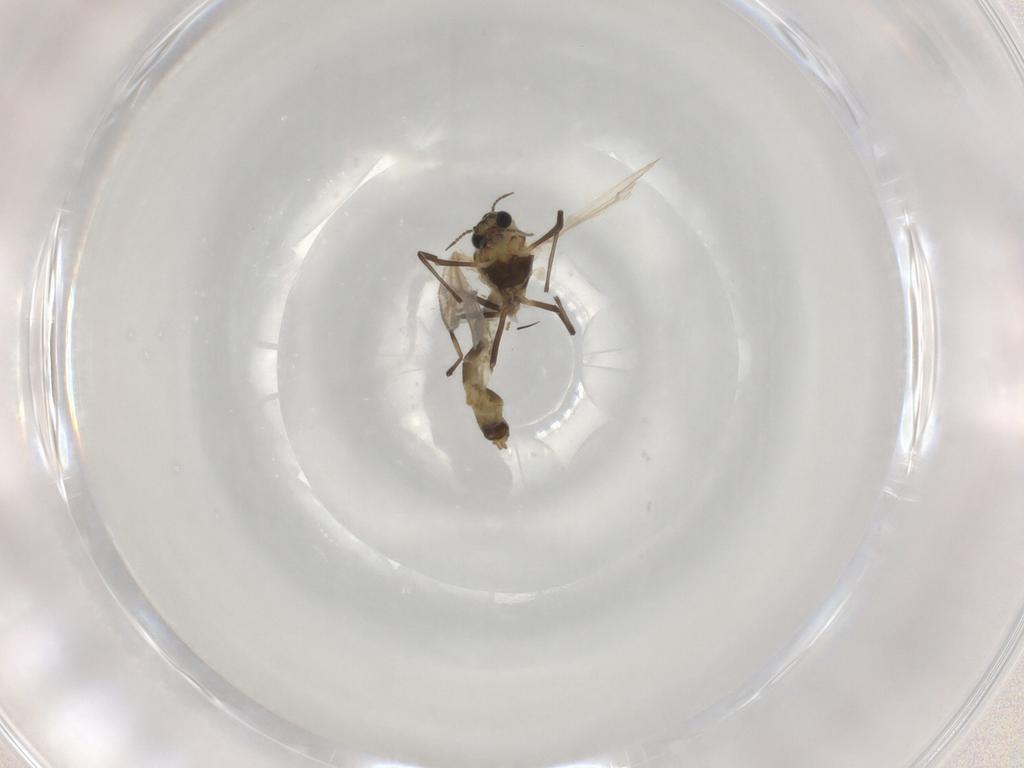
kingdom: Animalia
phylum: Arthropoda
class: Insecta
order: Diptera
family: Chironomidae
